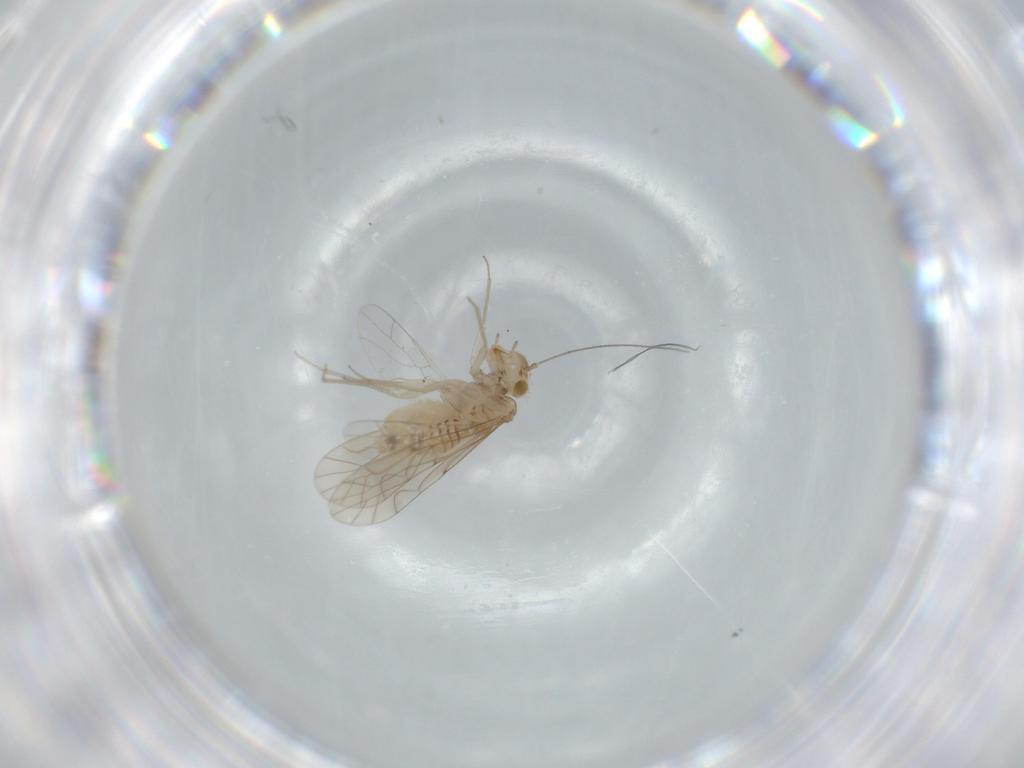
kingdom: Animalia
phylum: Arthropoda
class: Insecta
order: Psocodea
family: Lachesillidae
